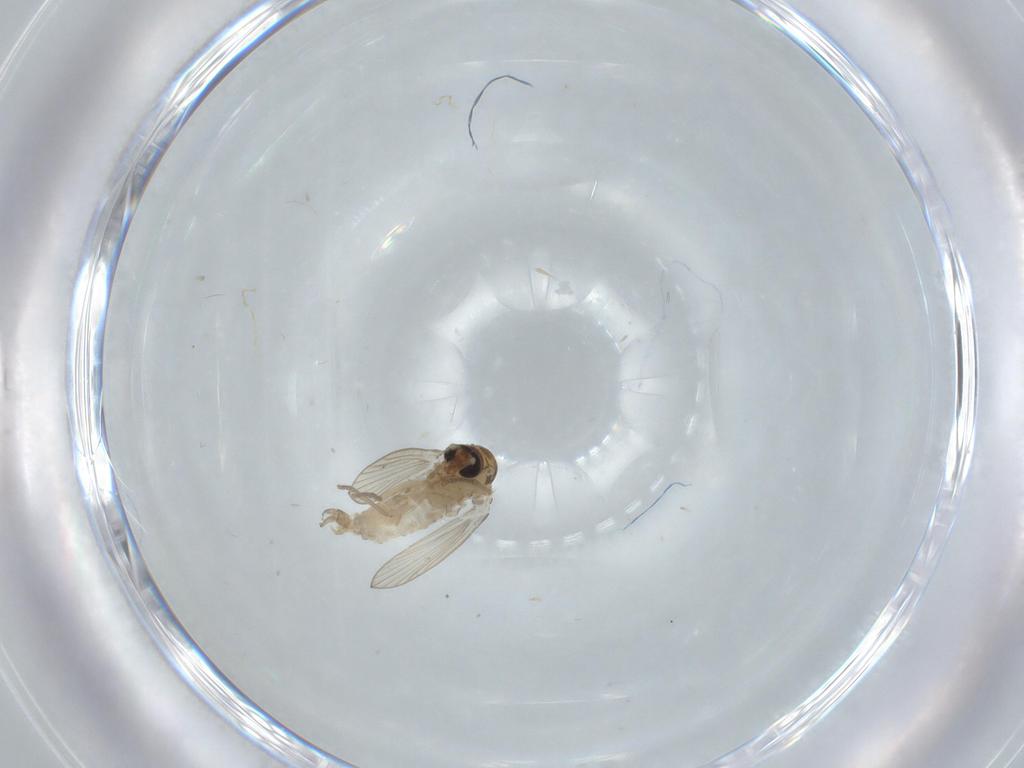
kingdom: Animalia
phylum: Arthropoda
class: Insecta
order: Diptera
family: Psychodidae
